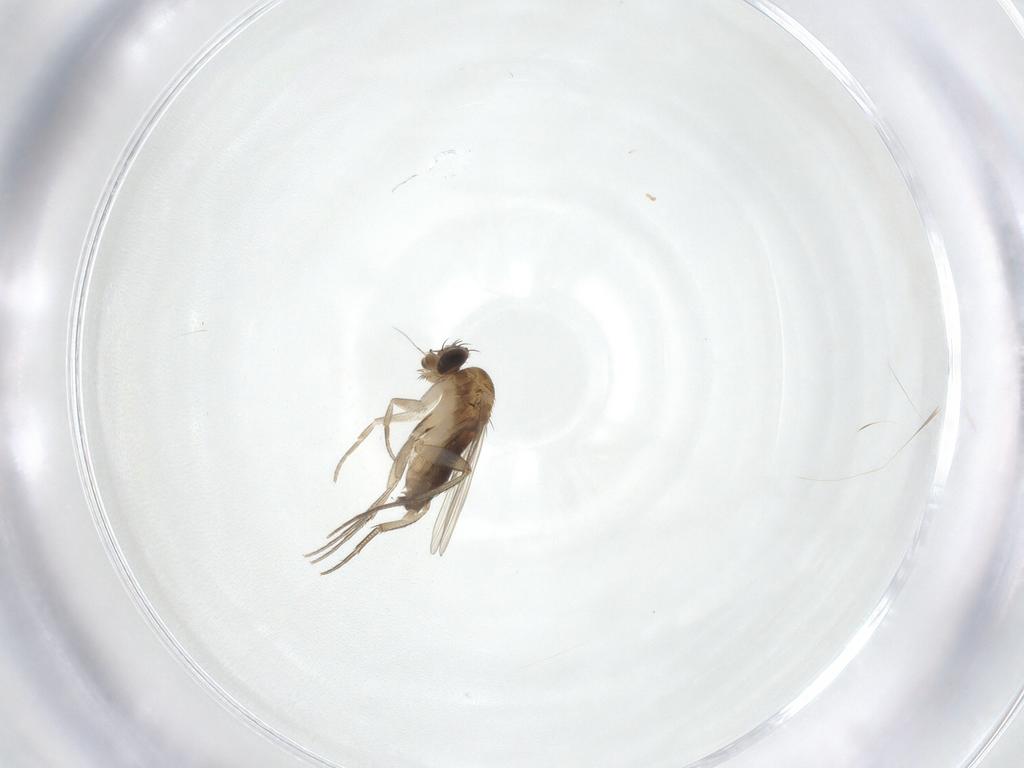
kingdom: Animalia
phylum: Arthropoda
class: Insecta
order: Diptera
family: Phoridae
